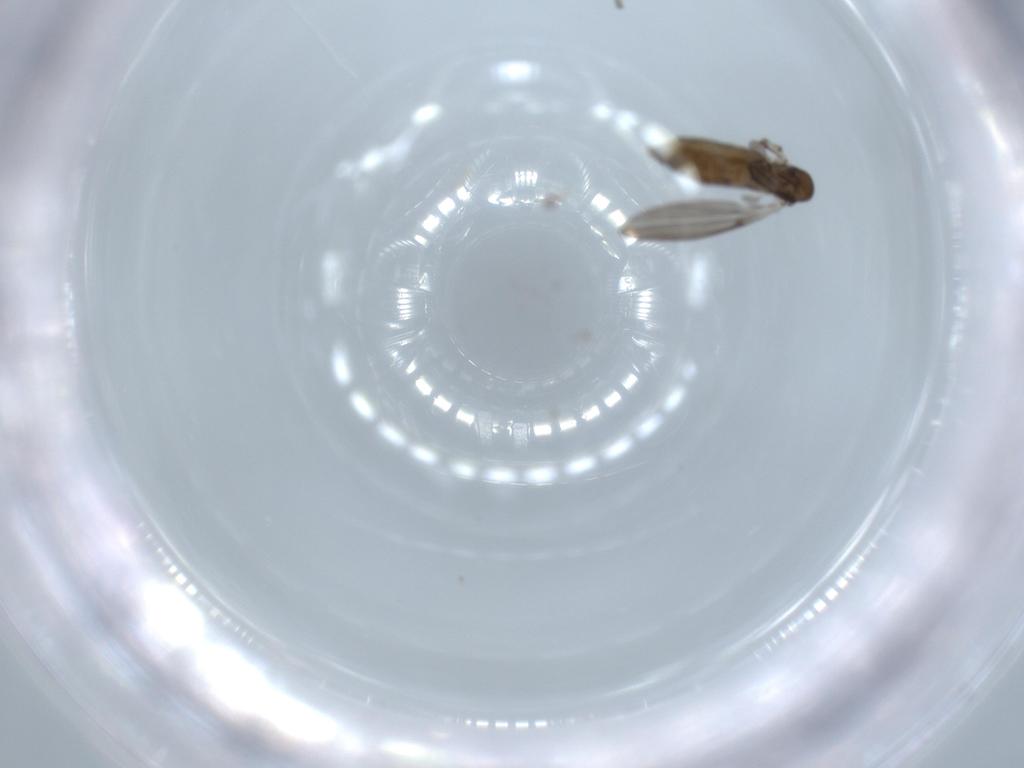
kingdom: Animalia
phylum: Arthropoda
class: Insecta
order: Diptera
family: Cecidomyiidae
